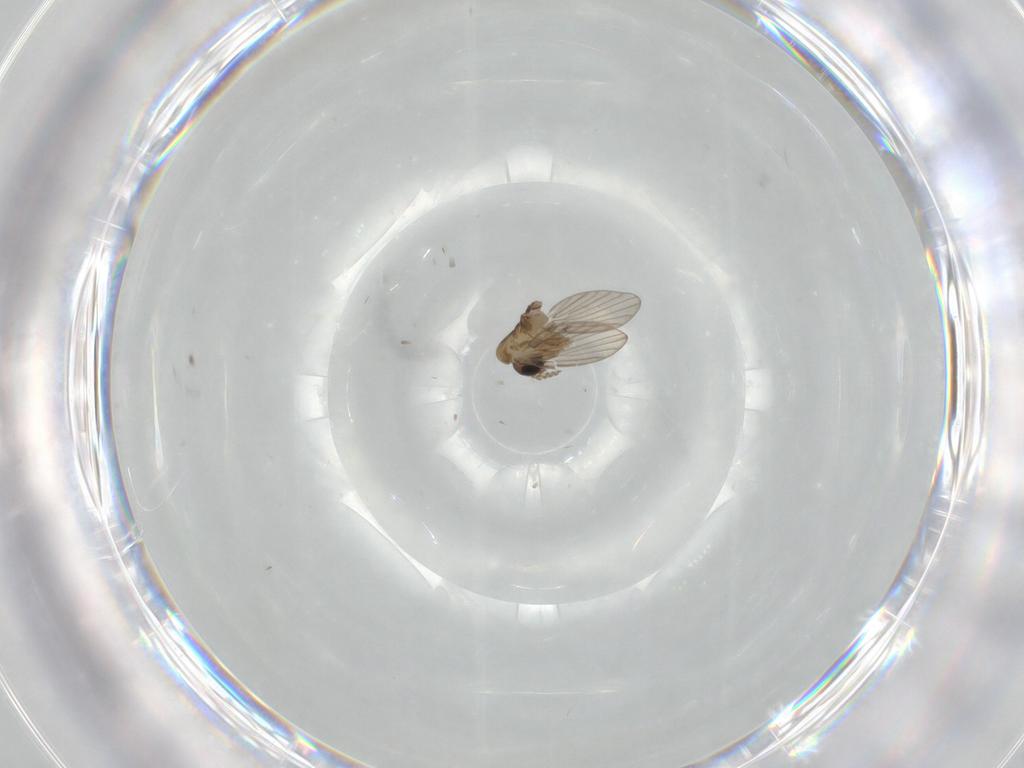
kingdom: Animalia
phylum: Arthropoda
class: Insecta
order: Diptera
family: Psychodidae
